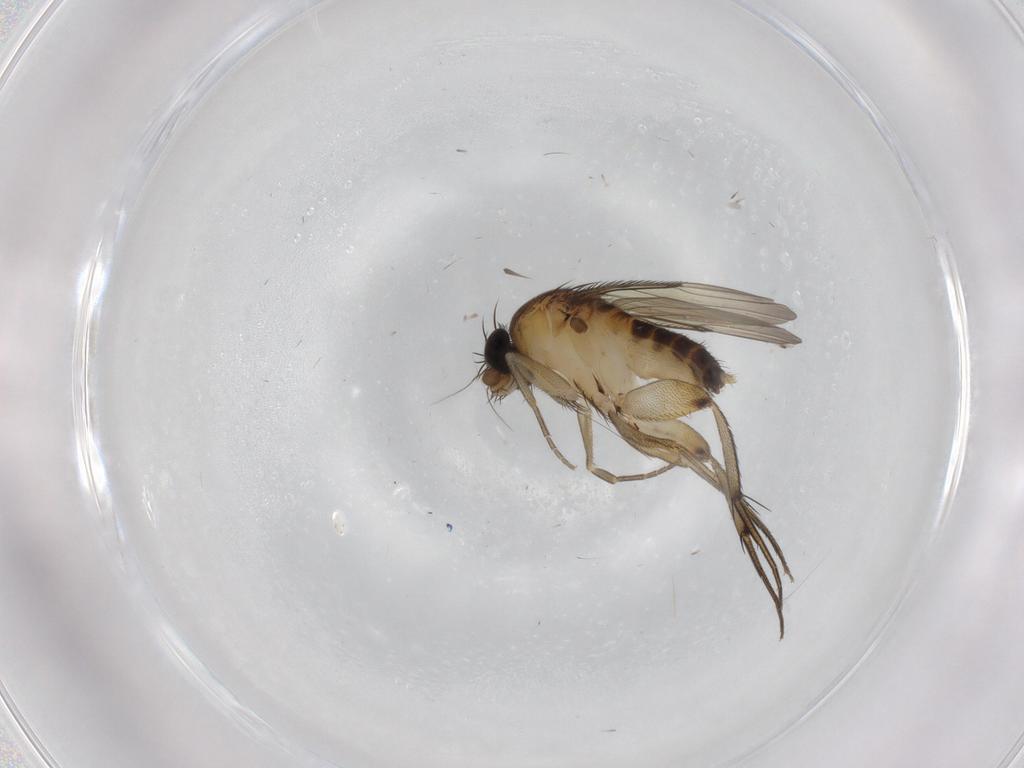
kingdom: Animalia
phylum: Arthropoda
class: Insecta
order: Diptera
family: Phoridae
